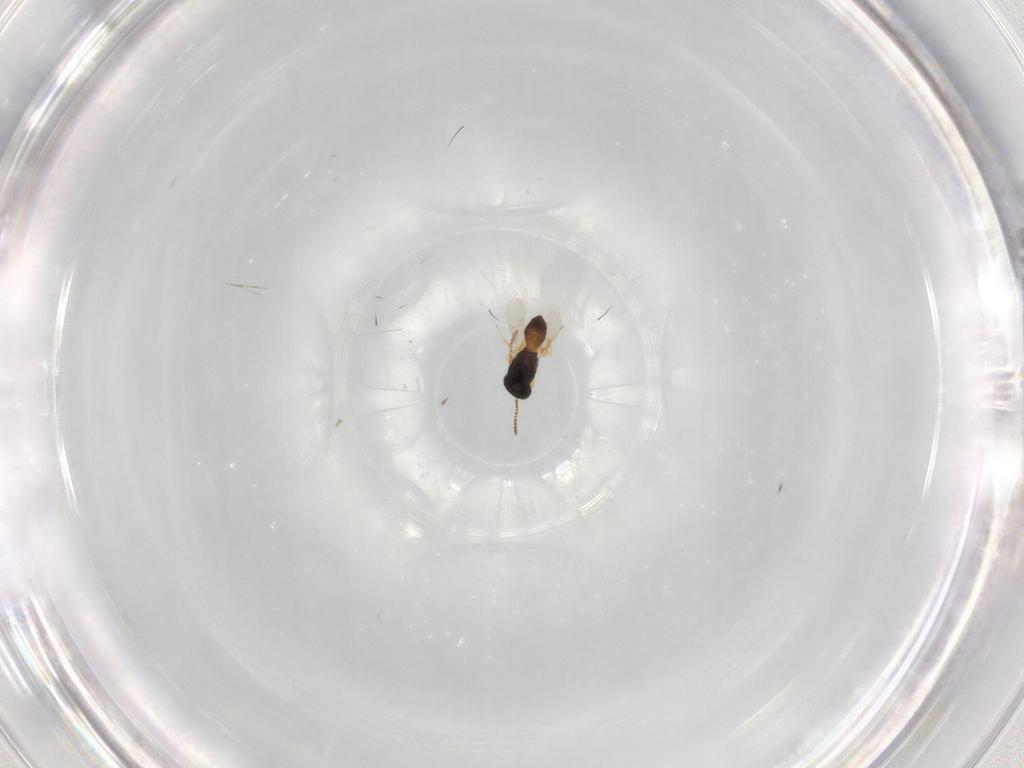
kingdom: Animalia
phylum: Arthropoda
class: Insecta
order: Hymenoptera
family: Scelionidae
